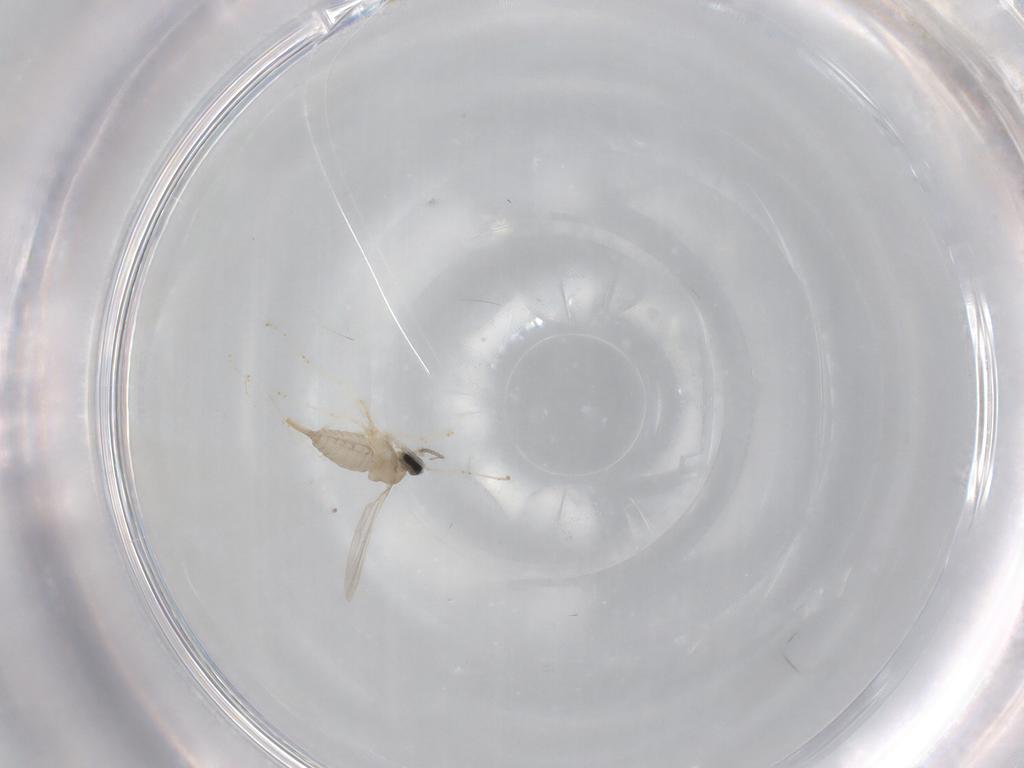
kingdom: Animalia
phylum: Arthropoda
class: Insecta
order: Diptera
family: Cecidomyiidae
